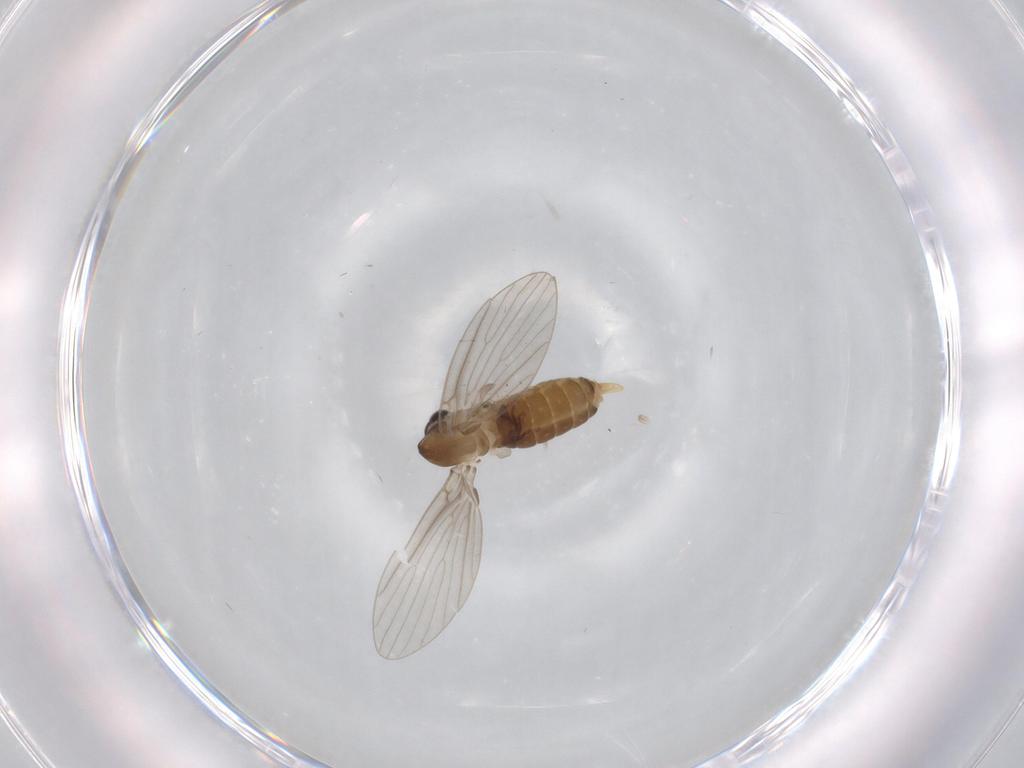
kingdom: Animalia
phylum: Arthropoda
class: Insecta
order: Diptera
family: Psychodidae
